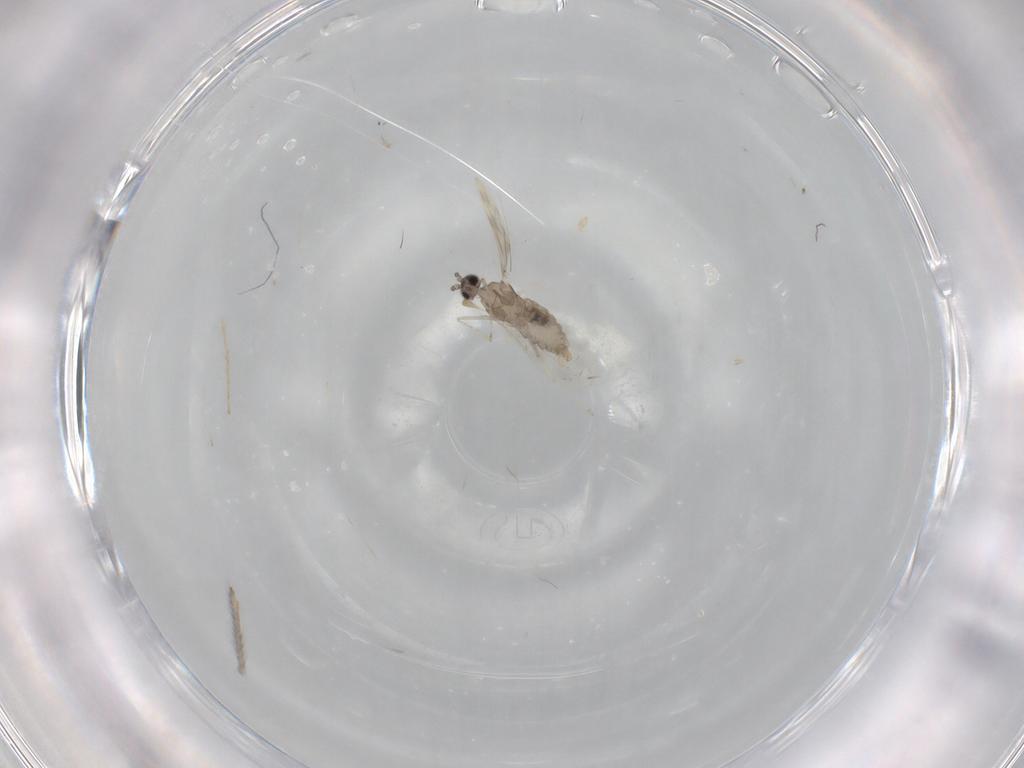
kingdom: Animalia
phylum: Arthropoda
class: Insecta
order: Diptera
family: Cecidomyiidae
